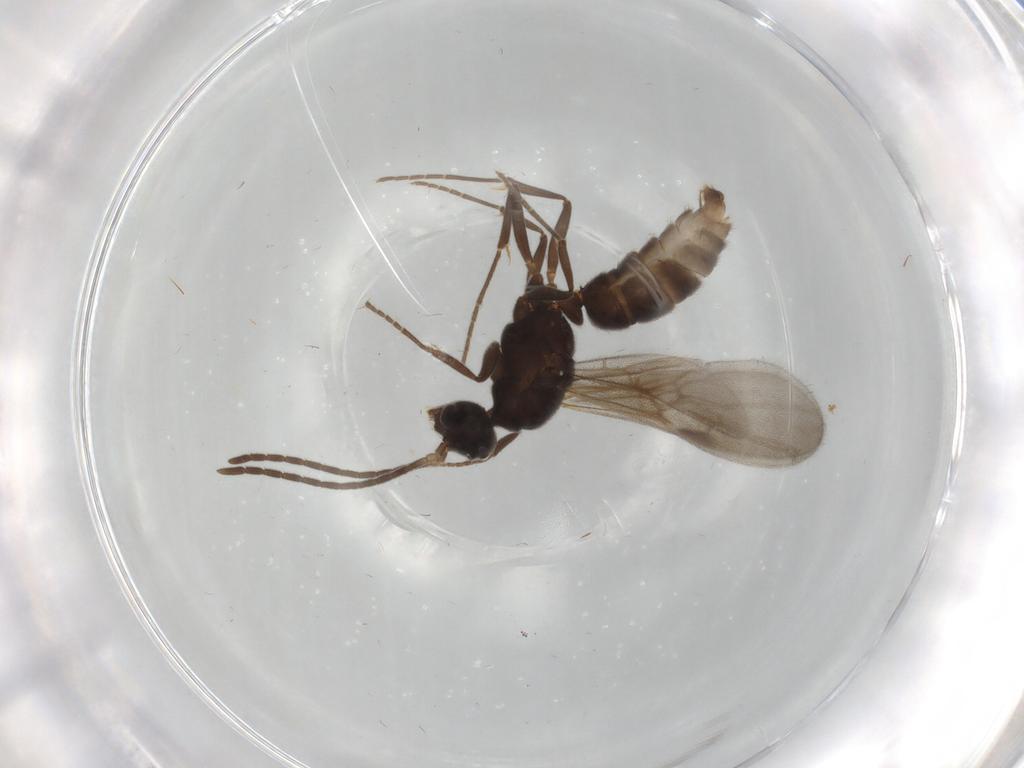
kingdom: Animalia
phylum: Arthropoda
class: Insecta
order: Hymenoptera
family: Formicidae
